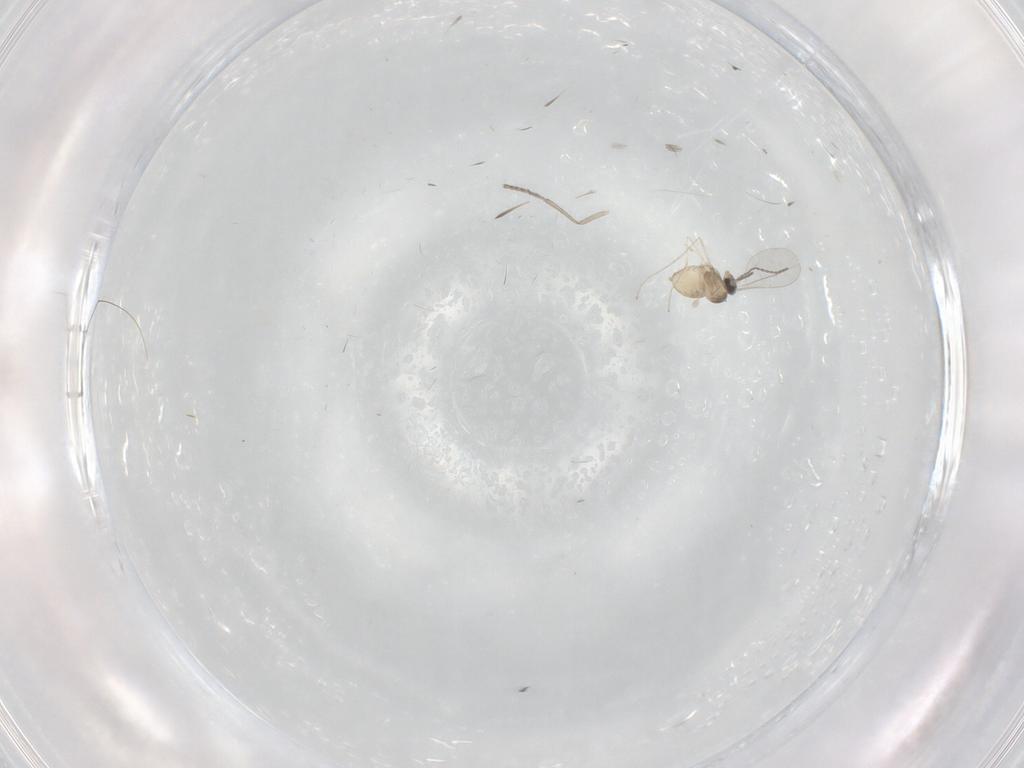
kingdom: Animalia
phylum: Arthropoda
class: Insecta
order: Diptera
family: Cecidomyiidae
